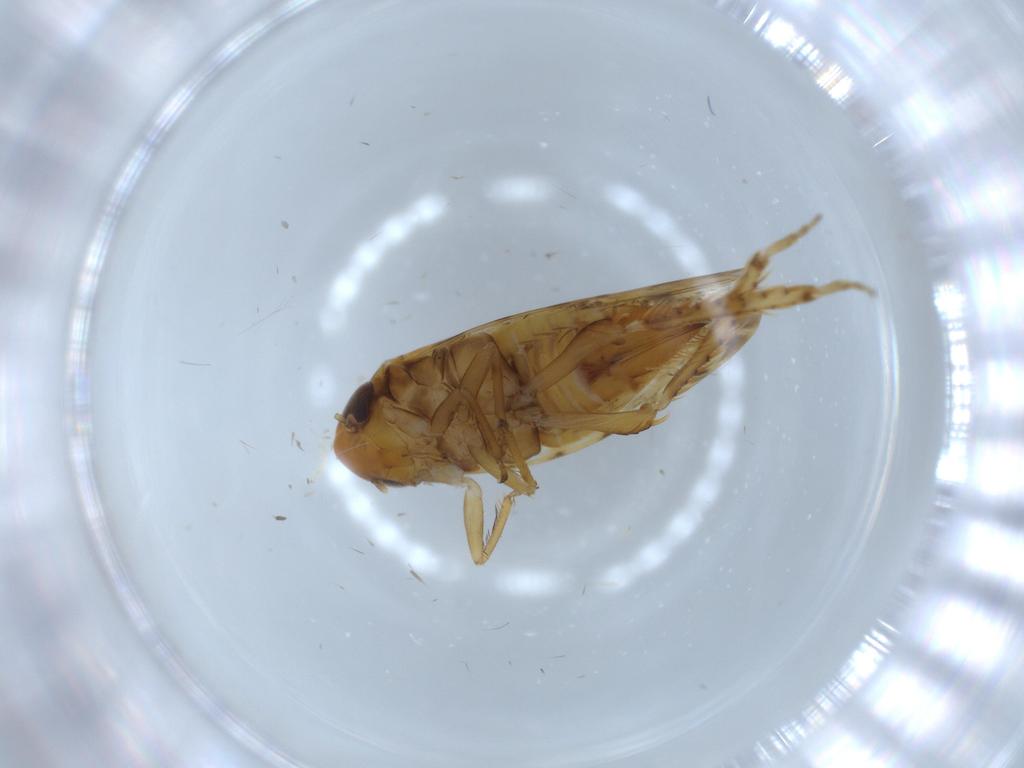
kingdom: Animalia
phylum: Arthropoda
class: Insecta
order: Hemiptera
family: Cicadellidae
